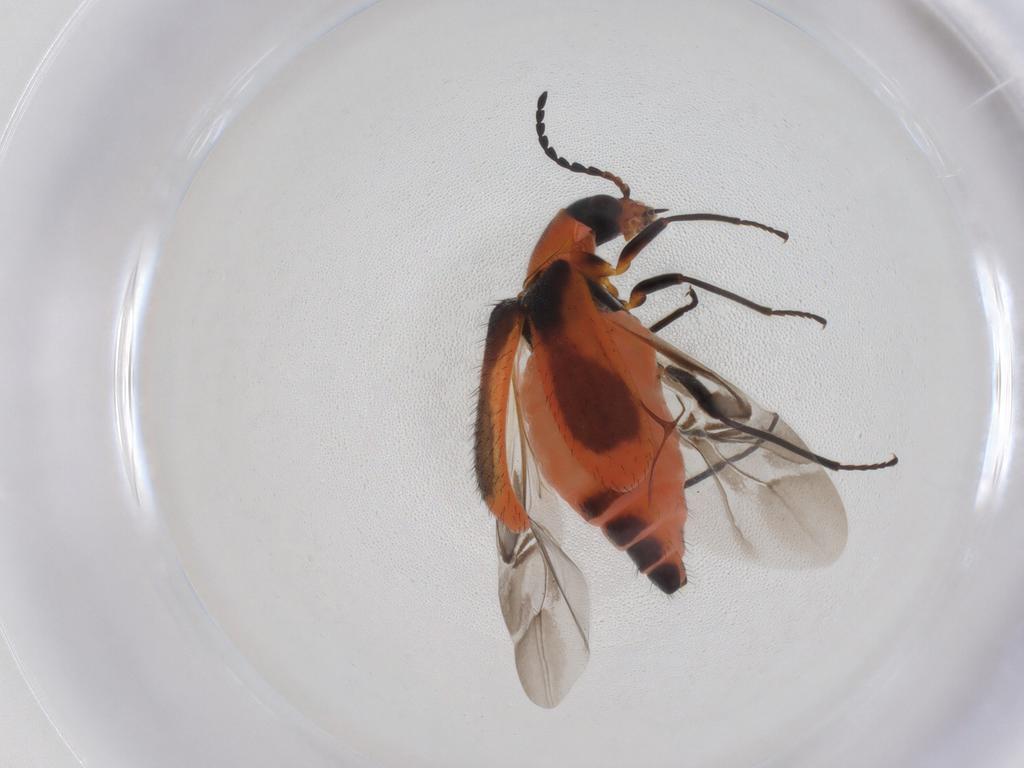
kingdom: Animalia
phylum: Arthropoda
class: Insecta
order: Coleoptera
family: Melyridae
